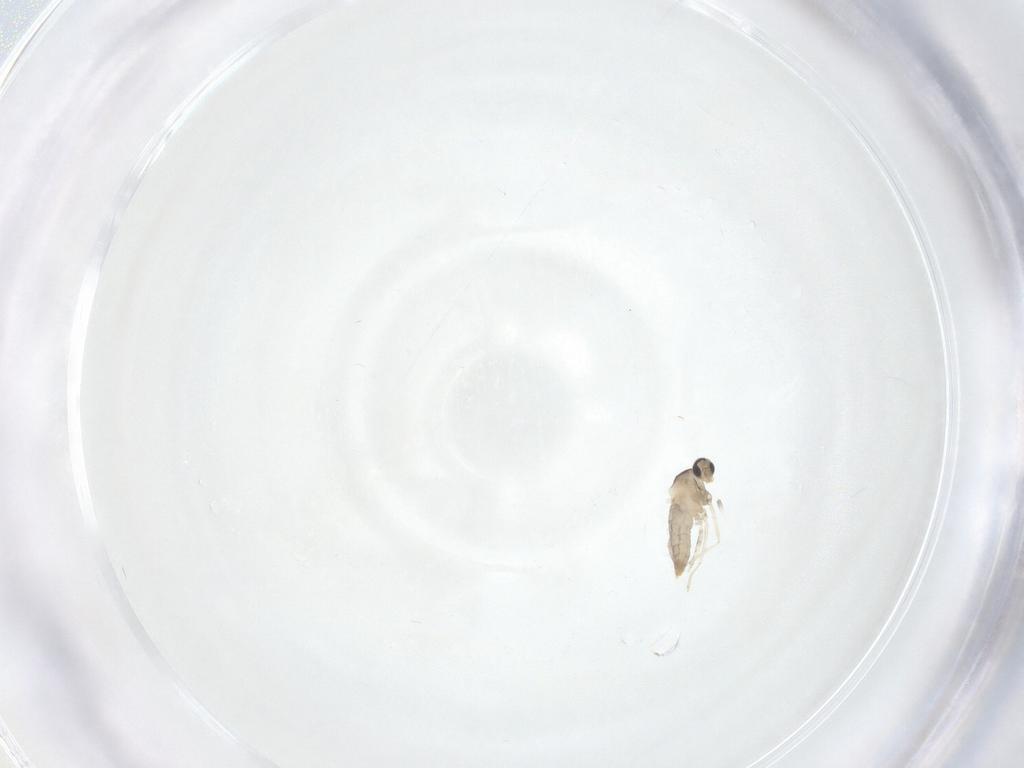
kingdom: Animalia
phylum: Arthropoda
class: Insecta
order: Diptera
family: Cecidomyiidae
